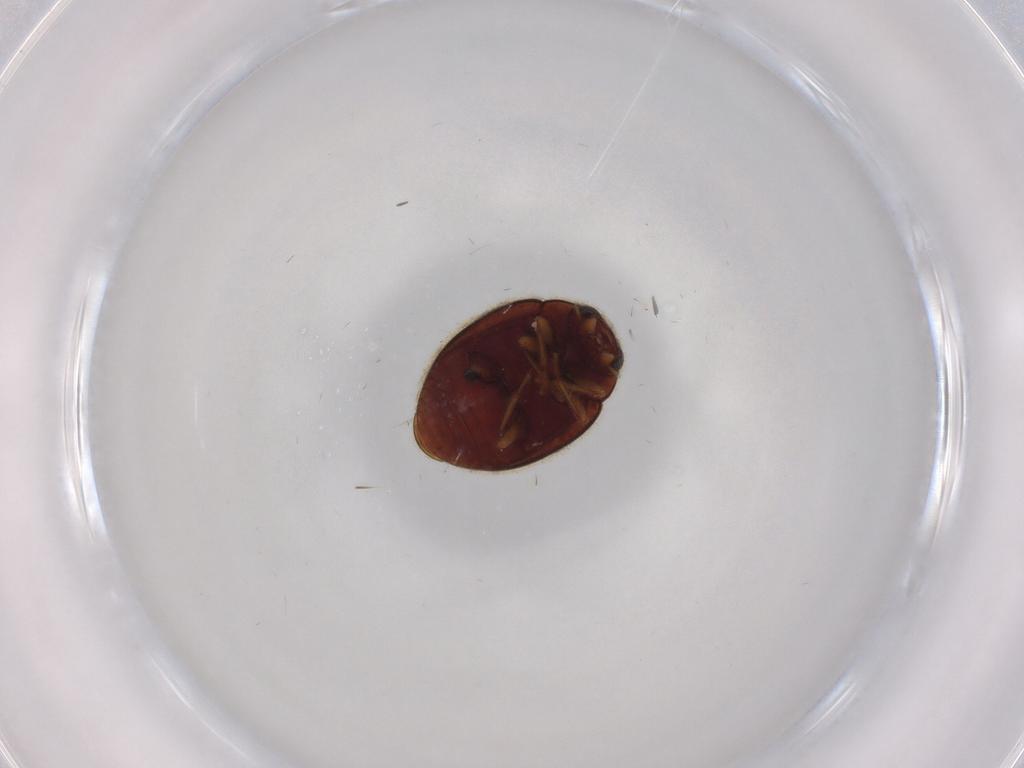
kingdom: Animalia
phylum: Arthropoda
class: Insecta
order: Coleoptera
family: Coccinellidae
